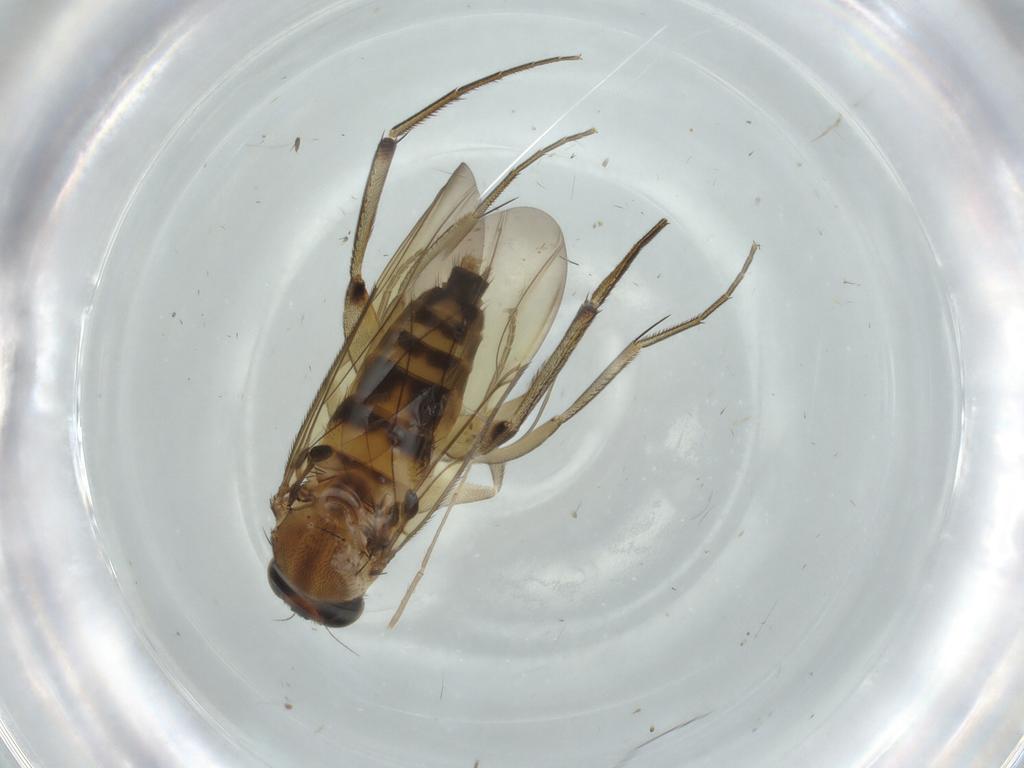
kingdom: Animalia
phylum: Arthropoda
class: Insecta
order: Diptera
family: Phoridae
